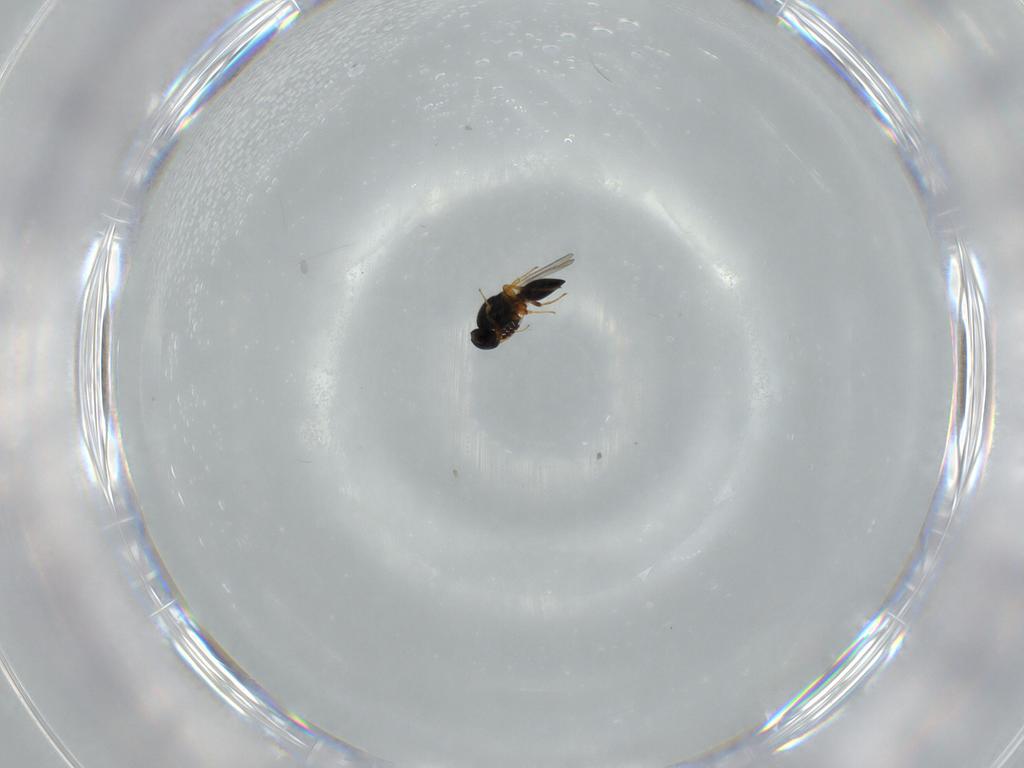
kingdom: Animalia
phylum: Arthropoda
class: Insecta
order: Hymenoptera
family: Platygastridae
